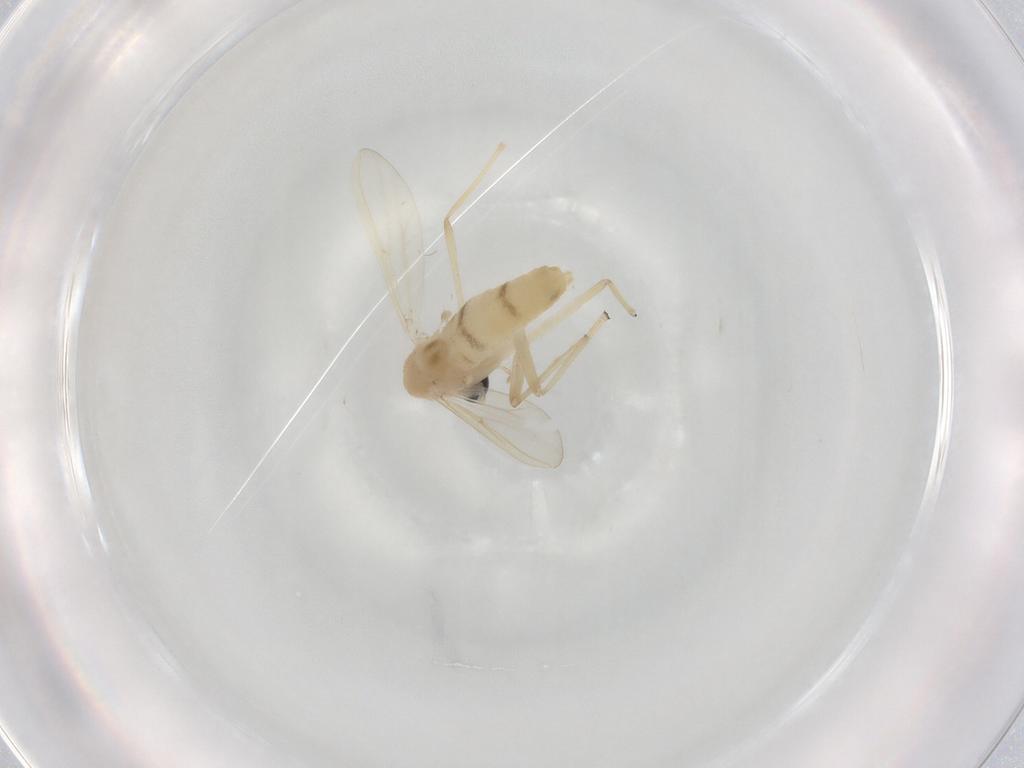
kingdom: Animalia
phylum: Arthropoda
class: Insecta
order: Diptera
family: Chironomidae
